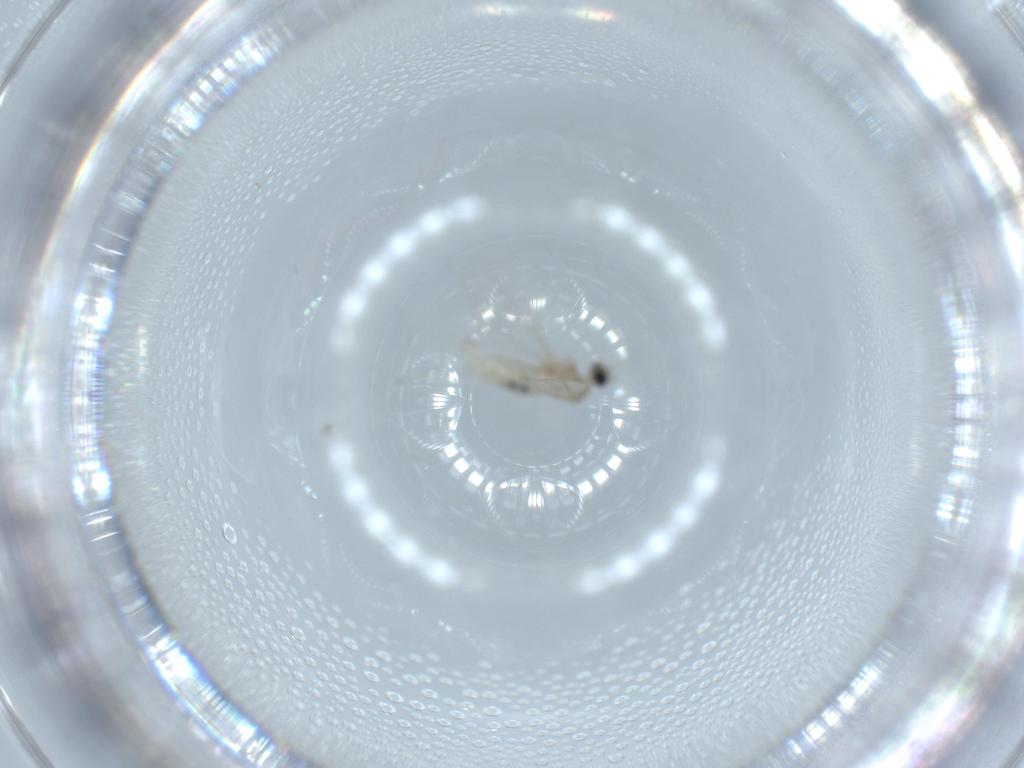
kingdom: Animalia
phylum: Arthropoda
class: Insecta
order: Diptera
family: Cecidomyiidae
